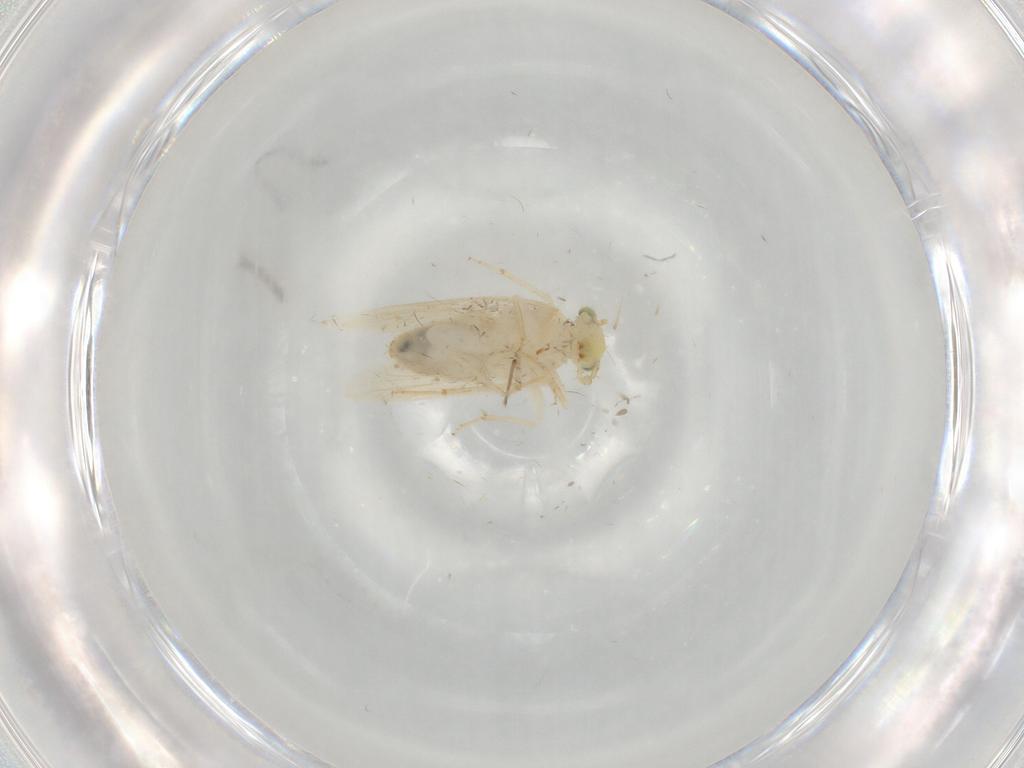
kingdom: Animalia
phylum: Arthropoda
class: Insecta
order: Psocodea
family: Lepidopsocidae
